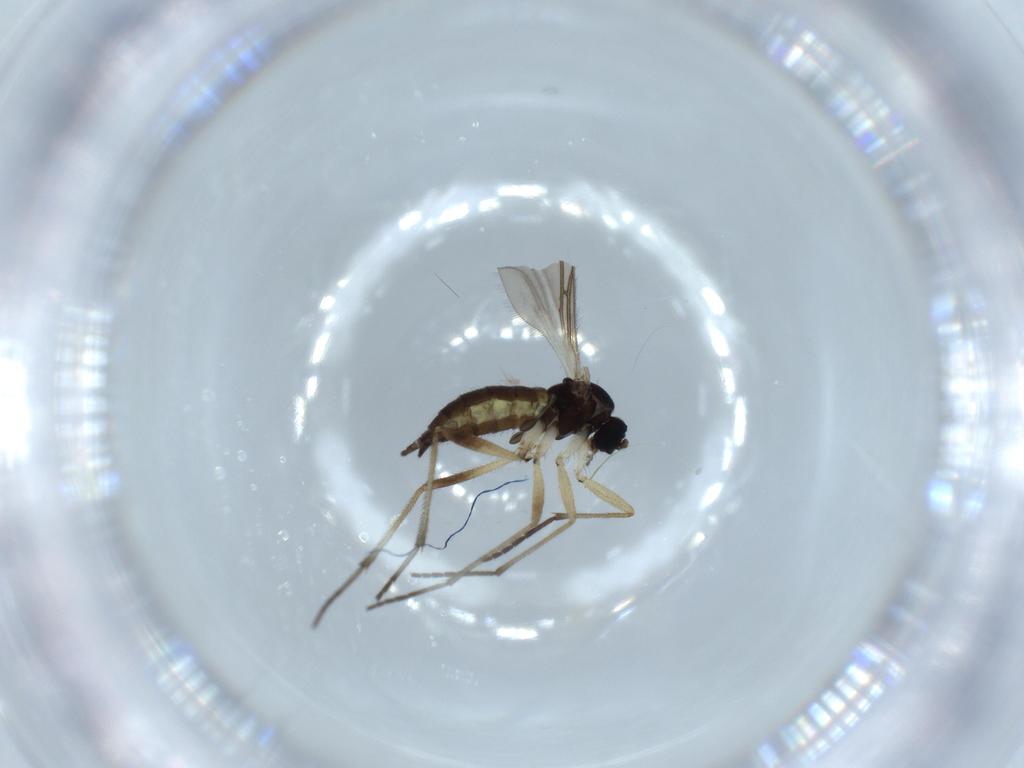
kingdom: Animalia
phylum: Arthropoda
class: Insecta
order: Diptera
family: Sciaridae
